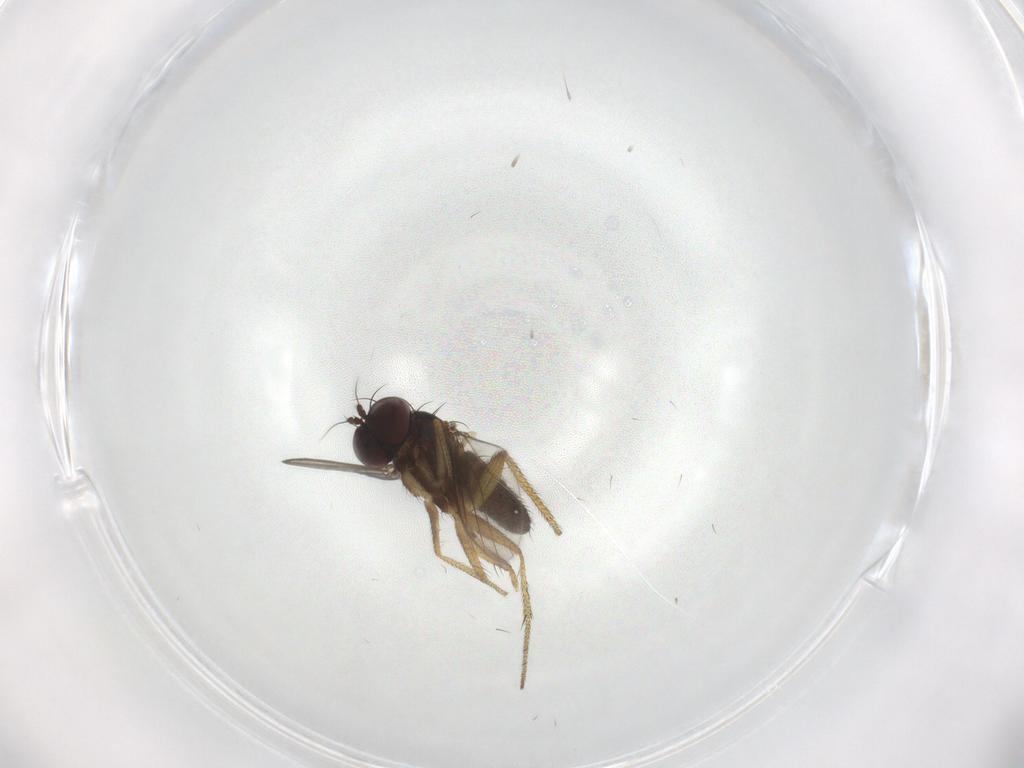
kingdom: Animalia
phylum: Arthropoda
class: Insecta
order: Diptera
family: Dolichopodidae
